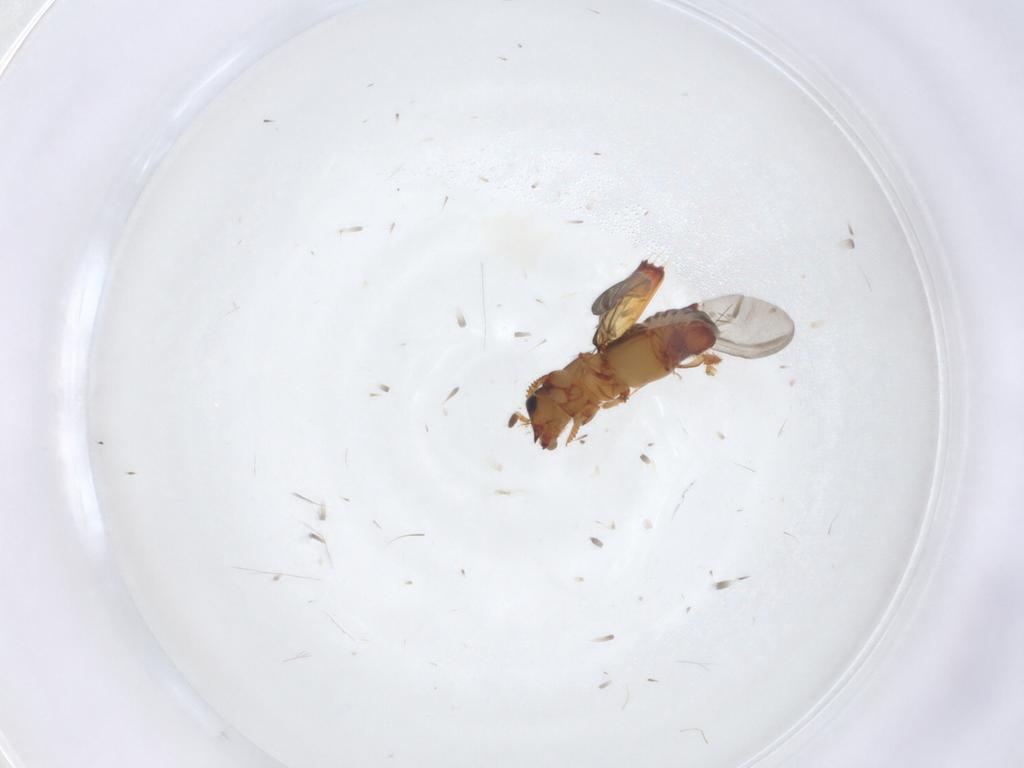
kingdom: Animalia
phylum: Arthropoda
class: Insecta
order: Coleoptera
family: Curculionidae
